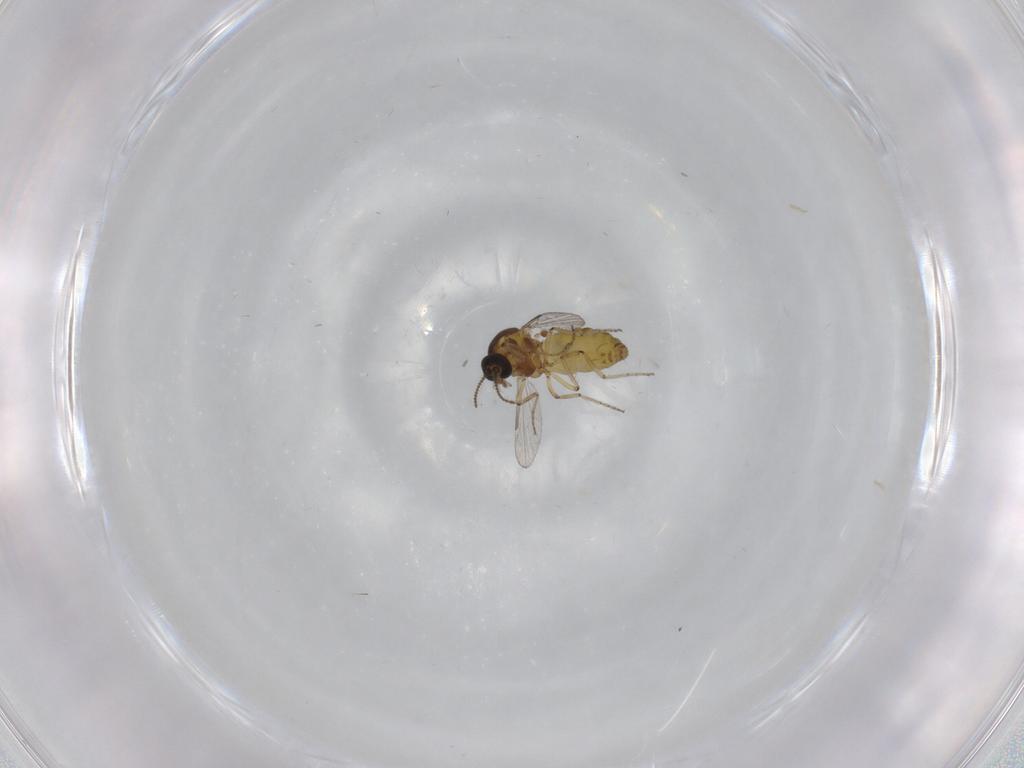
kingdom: Animalia
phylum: Arthropoda
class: Insecta
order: Diptera
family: Ceratopogonidae
